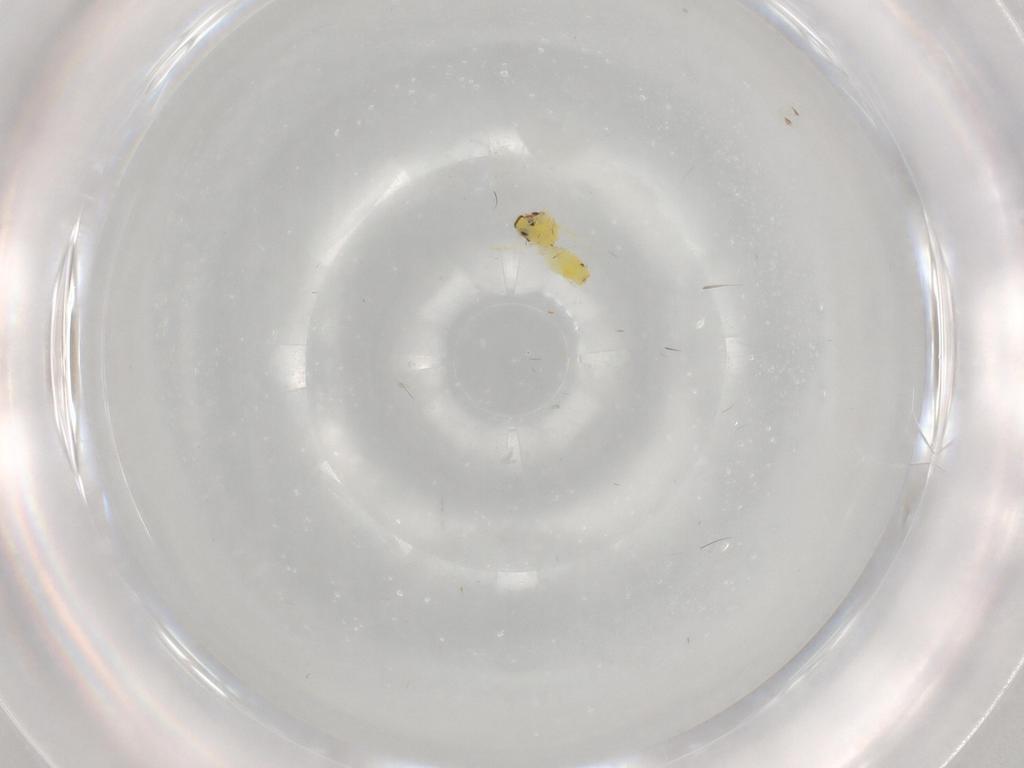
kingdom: Animalia
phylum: Arthropoda
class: Insecta
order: Hemiptera
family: Aleyrodidae
